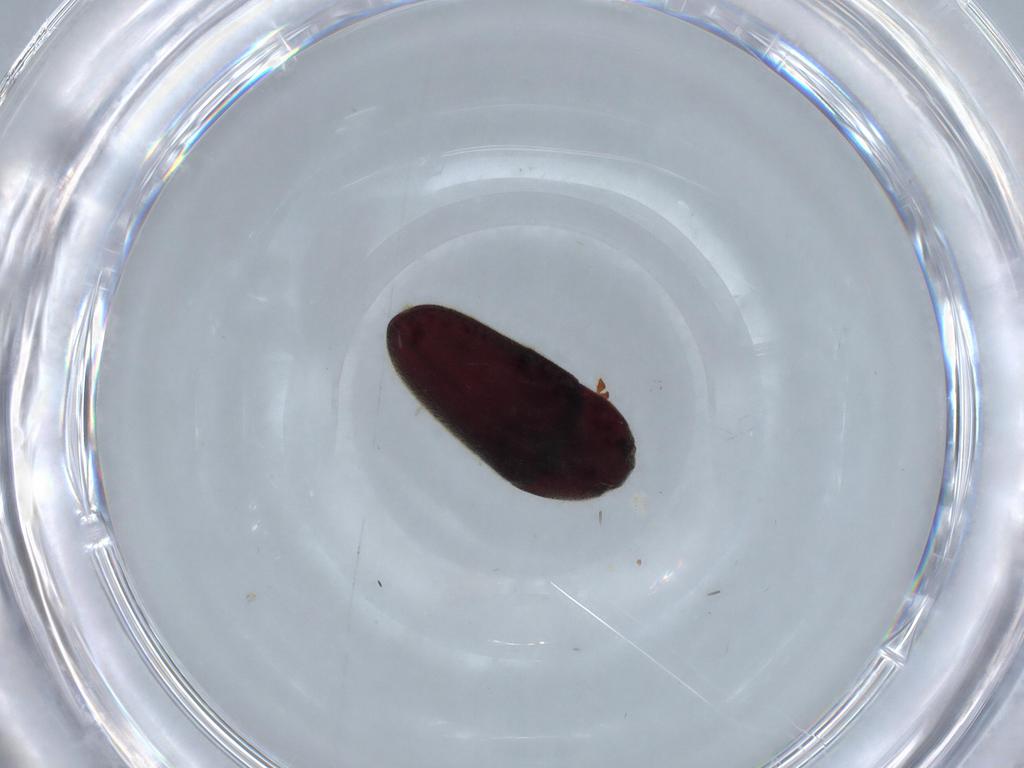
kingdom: Animalia
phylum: Arthropoda
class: Insecta
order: Coleoptera
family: Throscidae
